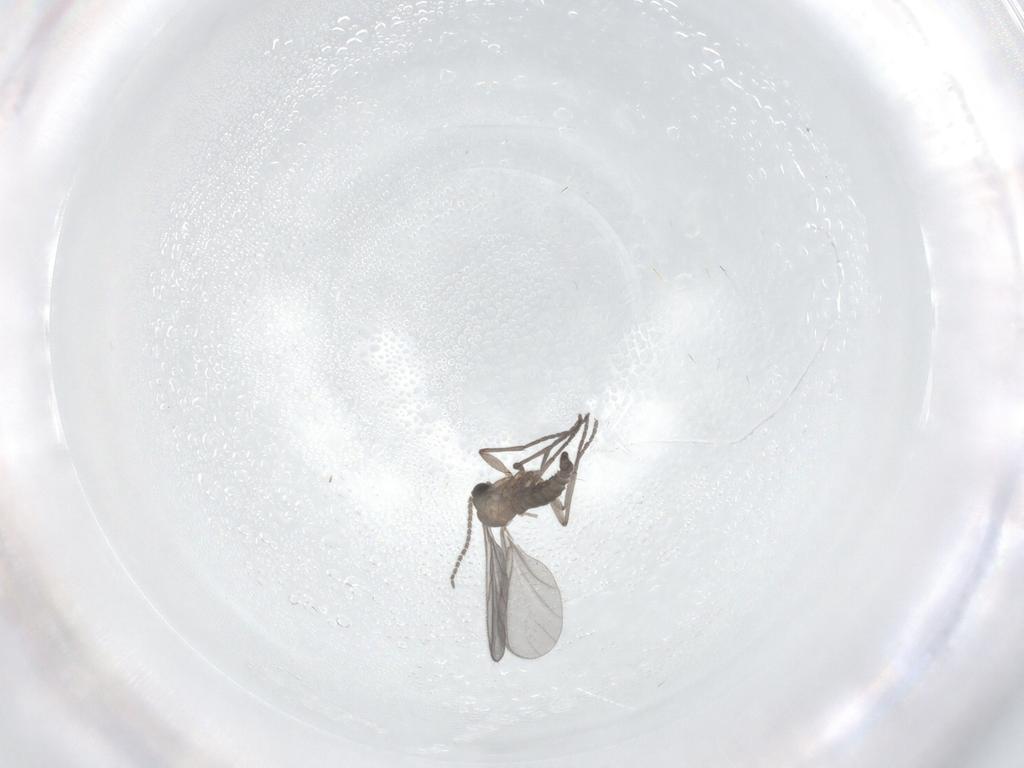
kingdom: Animalia
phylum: Arthropoda
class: Insecta
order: Diptera
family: Sciaridae
